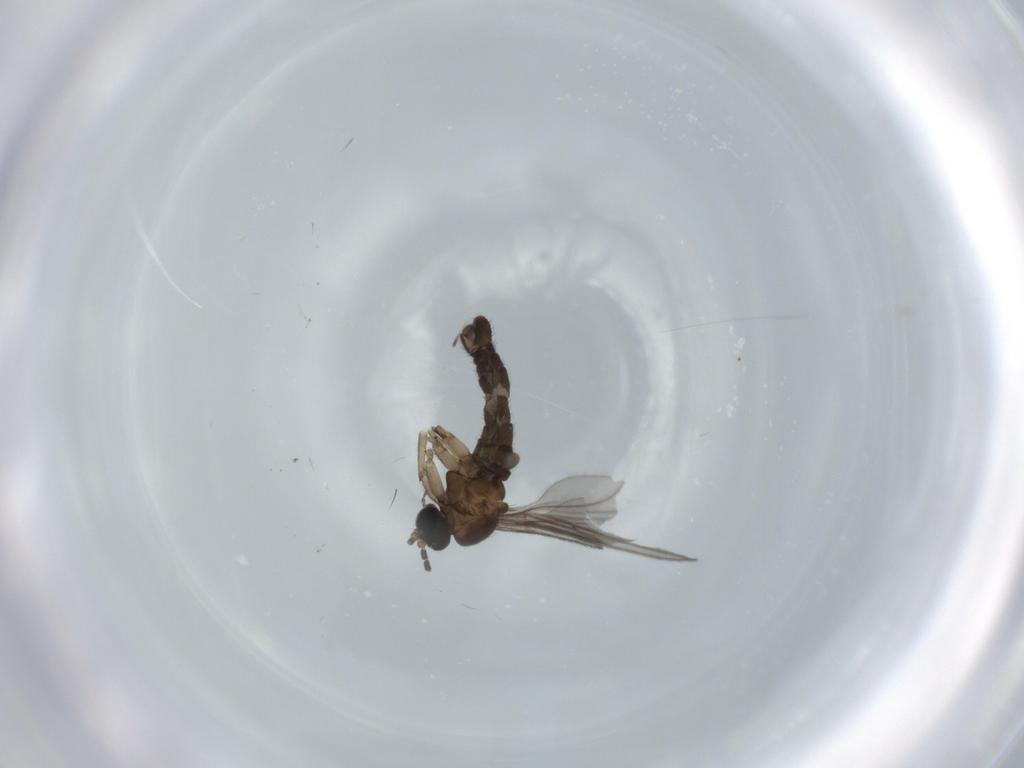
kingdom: Animalia
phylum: Arthropoda
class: Insecta
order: Diptera
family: Sciaridae
